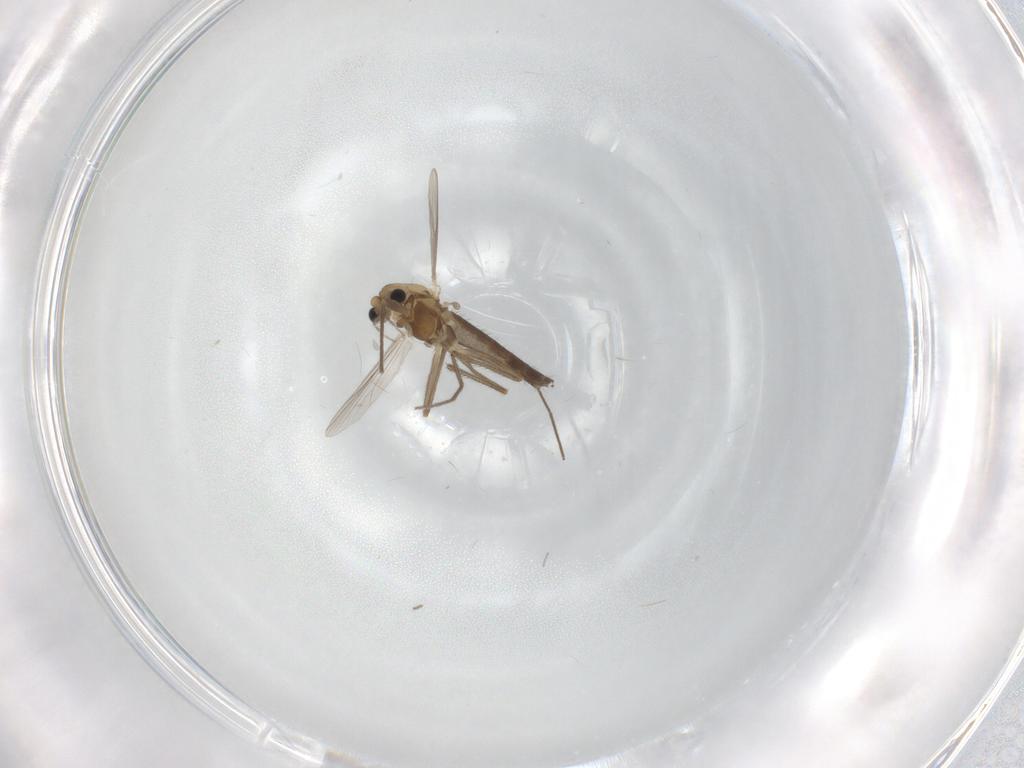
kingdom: Animalia
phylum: Arthropoda
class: Insecta
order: Diptera
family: Chironomidae
